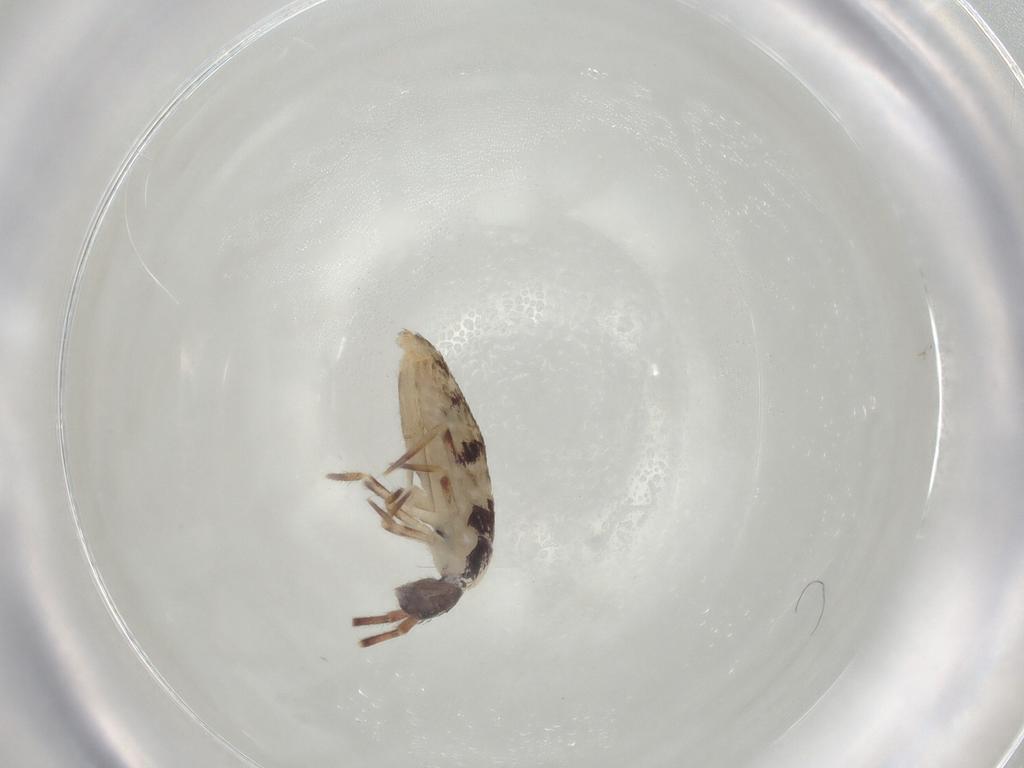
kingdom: Animalia
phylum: Arthropoda
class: Collembola
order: Entomobryomorpha
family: Entomobryidae
